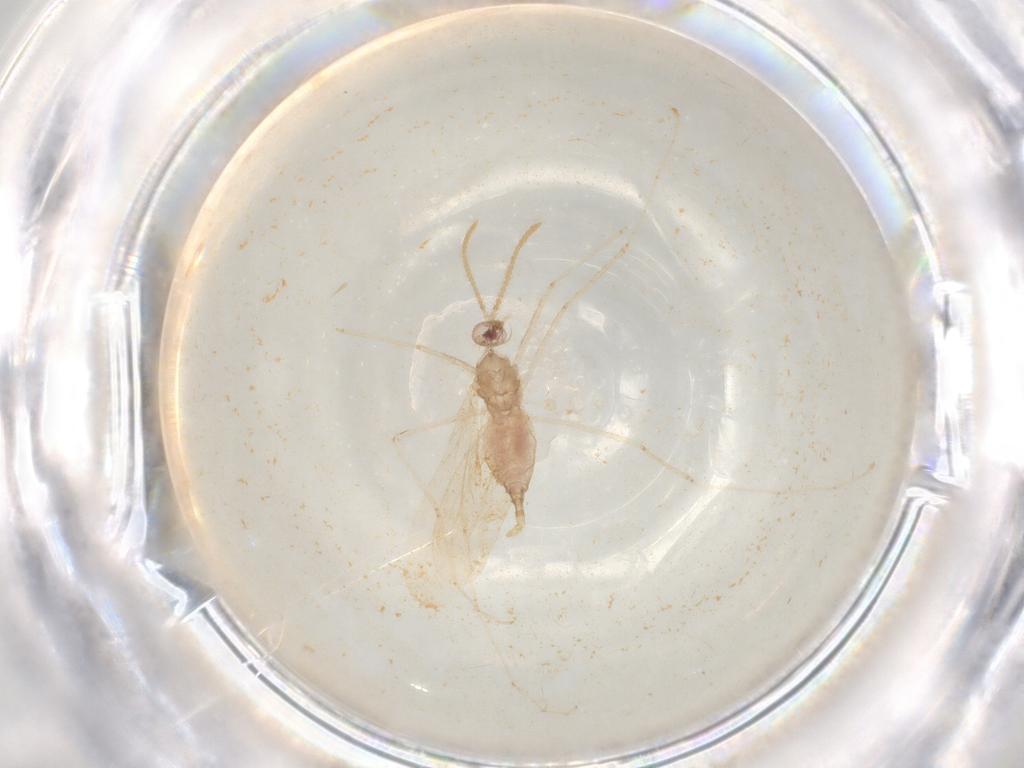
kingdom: Animalia
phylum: Arthropoda
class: Insecta
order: Diptera
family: Cecidomyiidae
